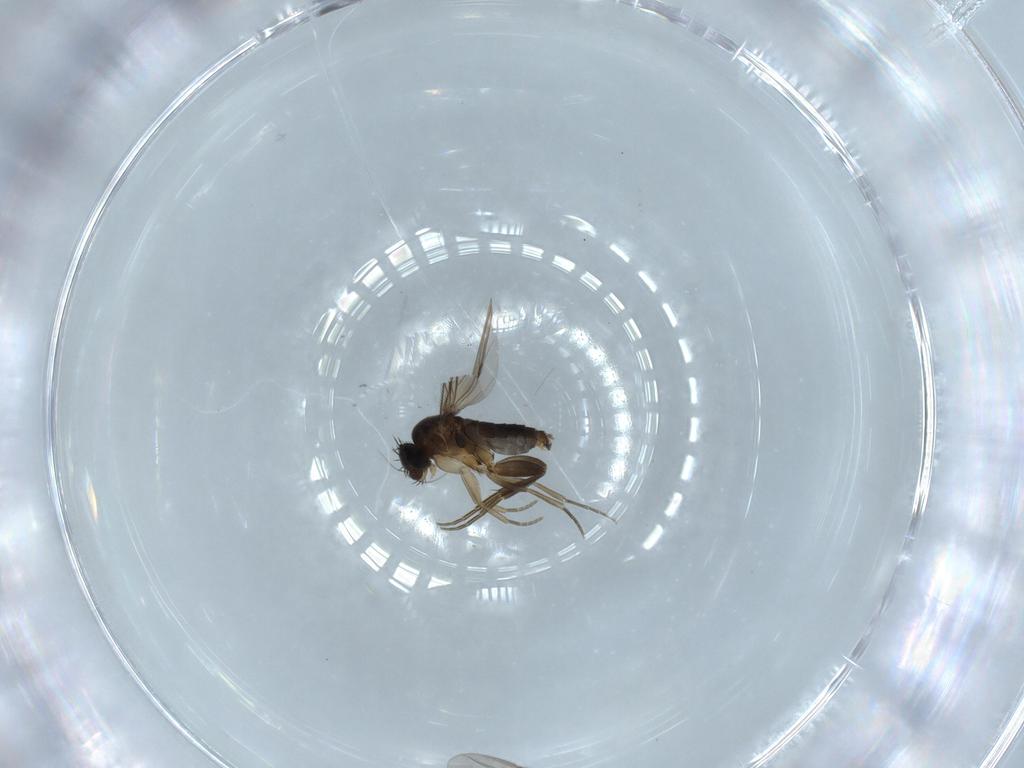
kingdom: Animalia
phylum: Arthropoda
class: Insecta
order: Diptera
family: Phoridae
